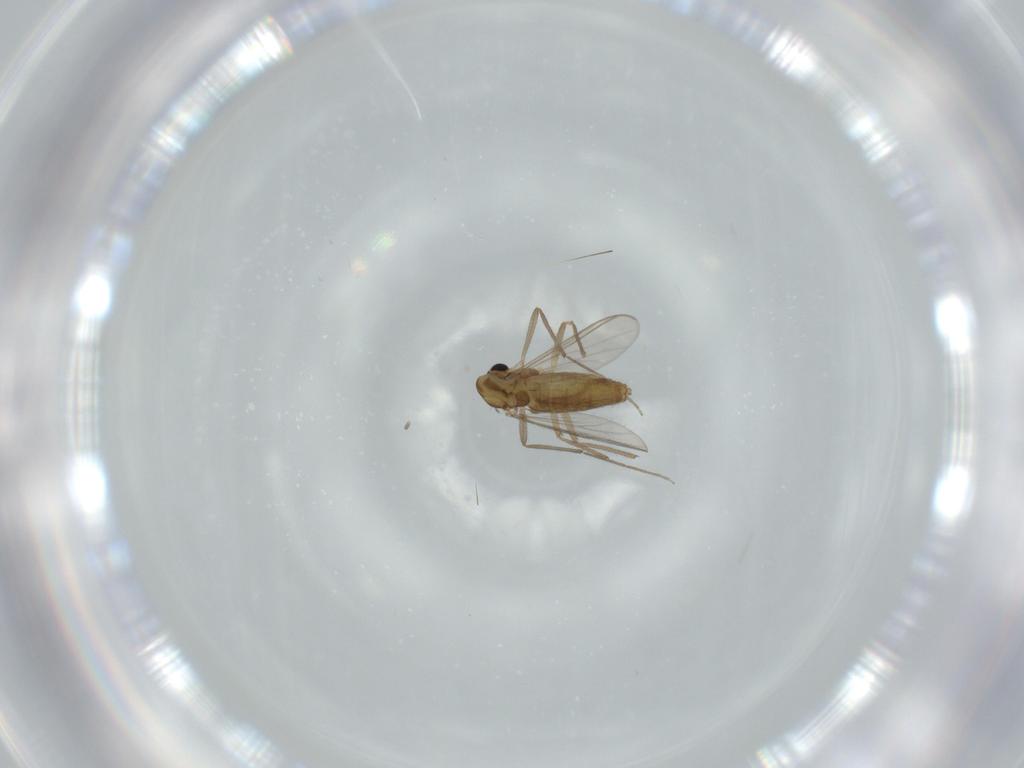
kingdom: Animalia
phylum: Arthropoda
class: Insecta
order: Diptera
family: Chironomidae
